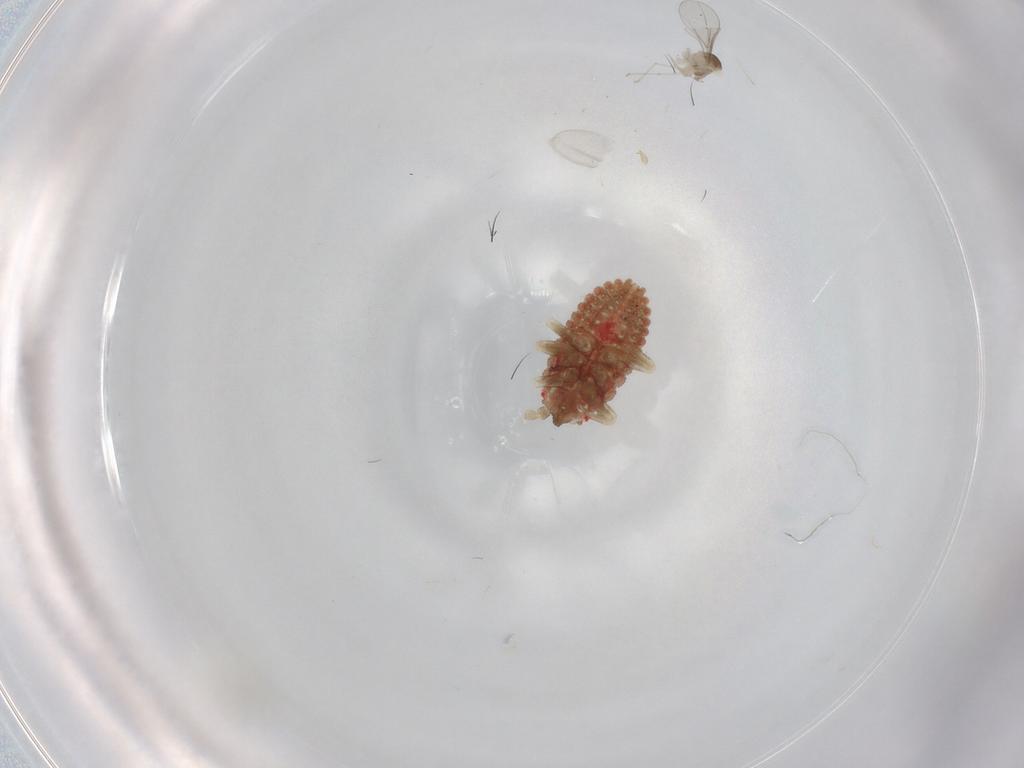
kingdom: Animalia
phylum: Arthropoda
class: Insecta
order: Diptera
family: Cecidomyiidae
